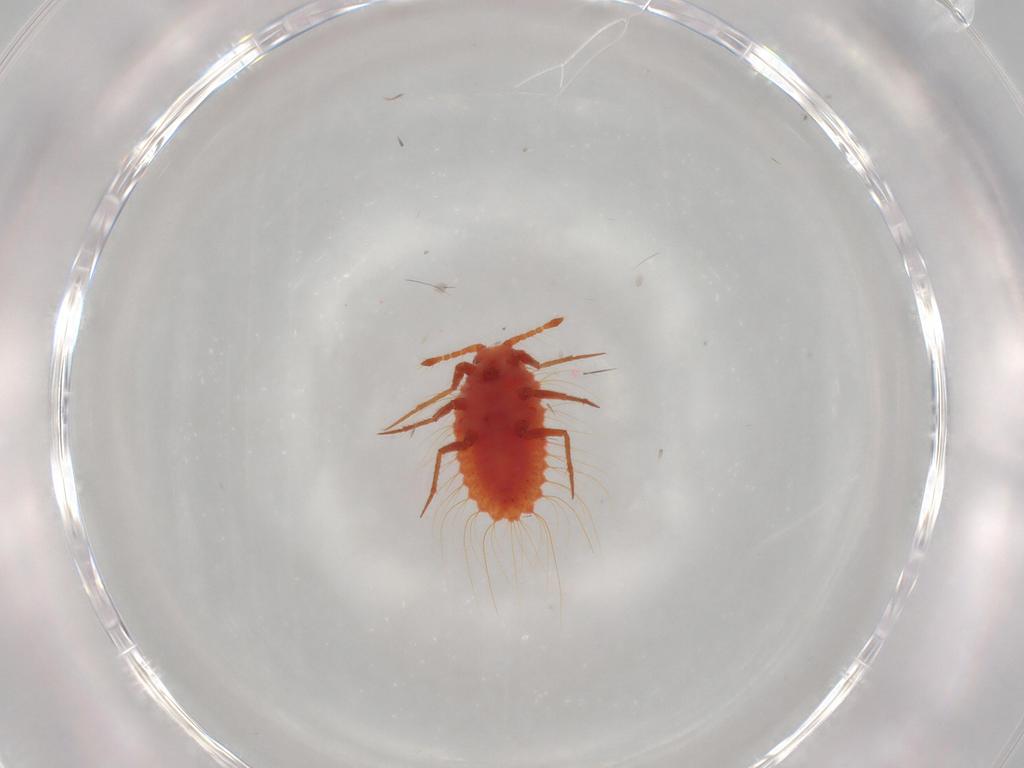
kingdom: Animalia
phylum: Arthropoda
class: Insecta
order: Hemiptera
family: Monophlebidae
